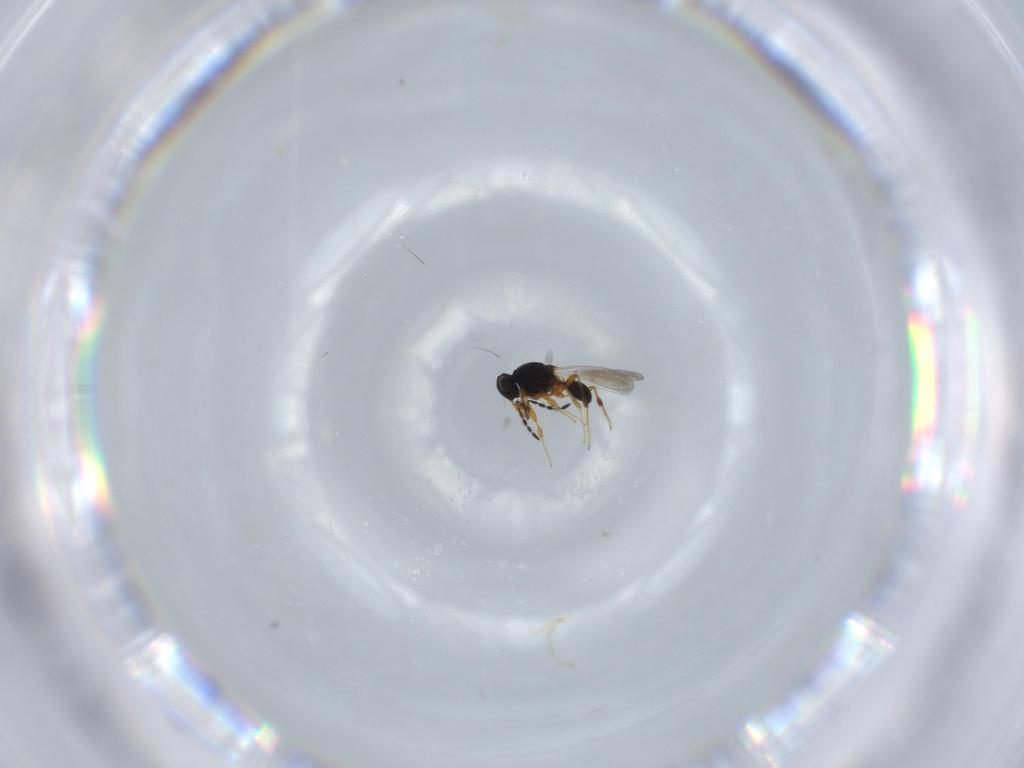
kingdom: Animalia
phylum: Arthropoda
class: Insecta
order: Hymenoptera
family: Platygastridae
